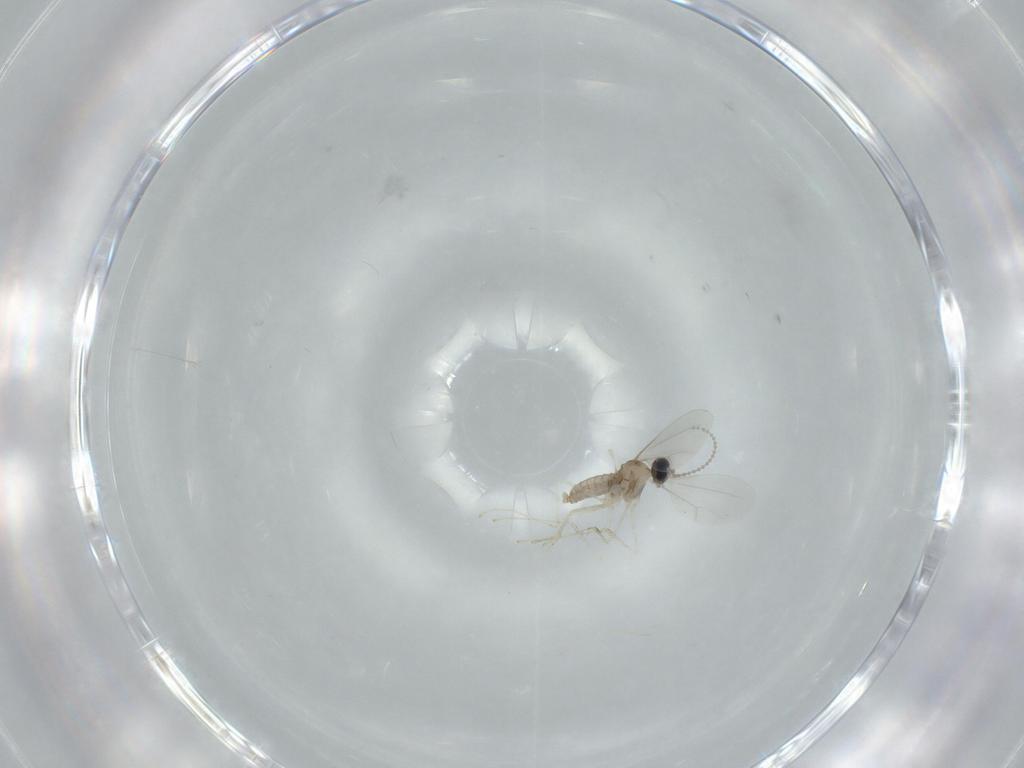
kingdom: Animalia
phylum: Arthropoda
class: Insecta
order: Diptera
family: Cecidomyiidae
